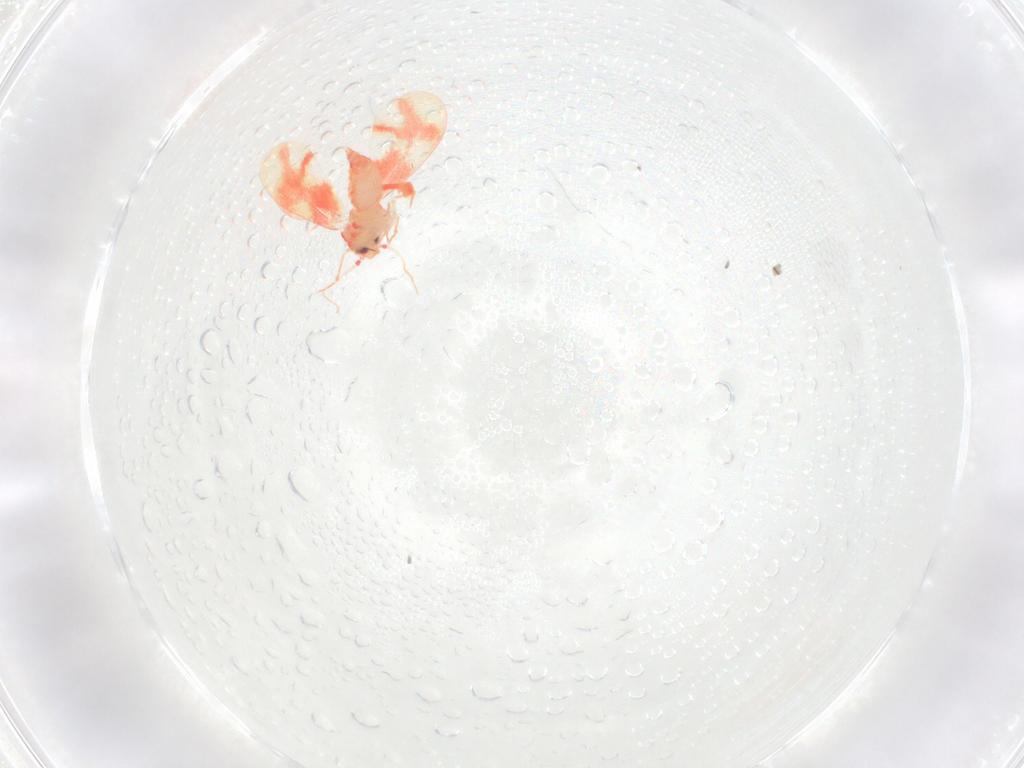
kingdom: Animalia
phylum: Arthropoda
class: Insecta
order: Diptera
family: Chironomidae
